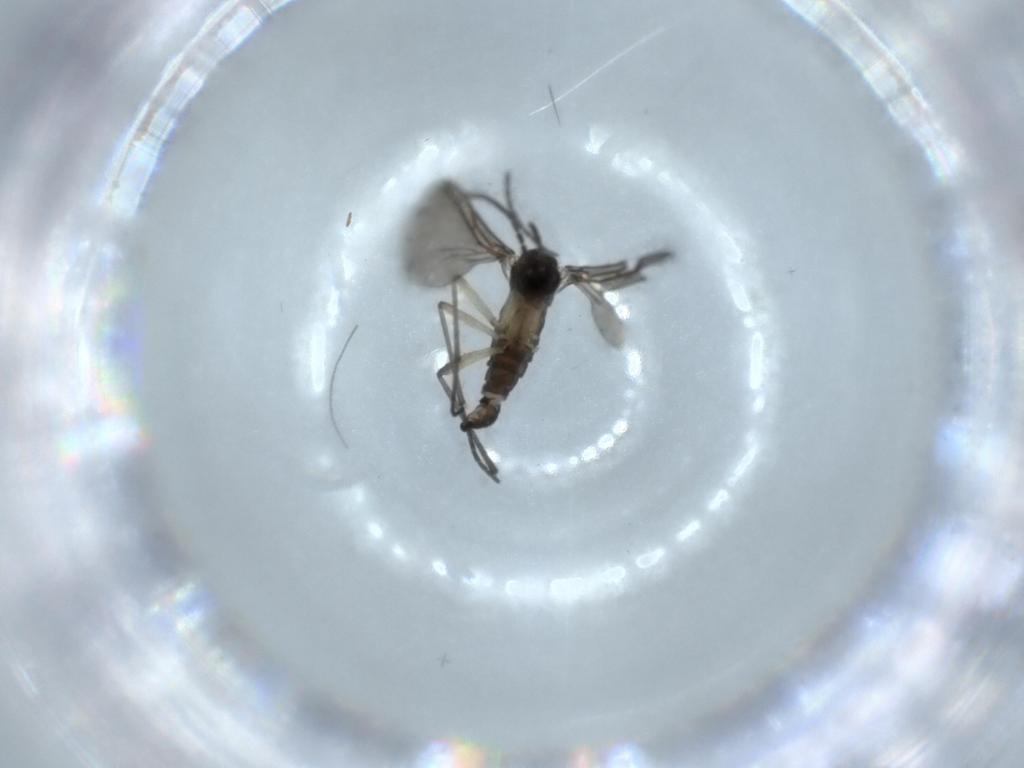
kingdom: Animalia
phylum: Arthropoda
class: Insecta
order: Diptera
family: Sciaridae
